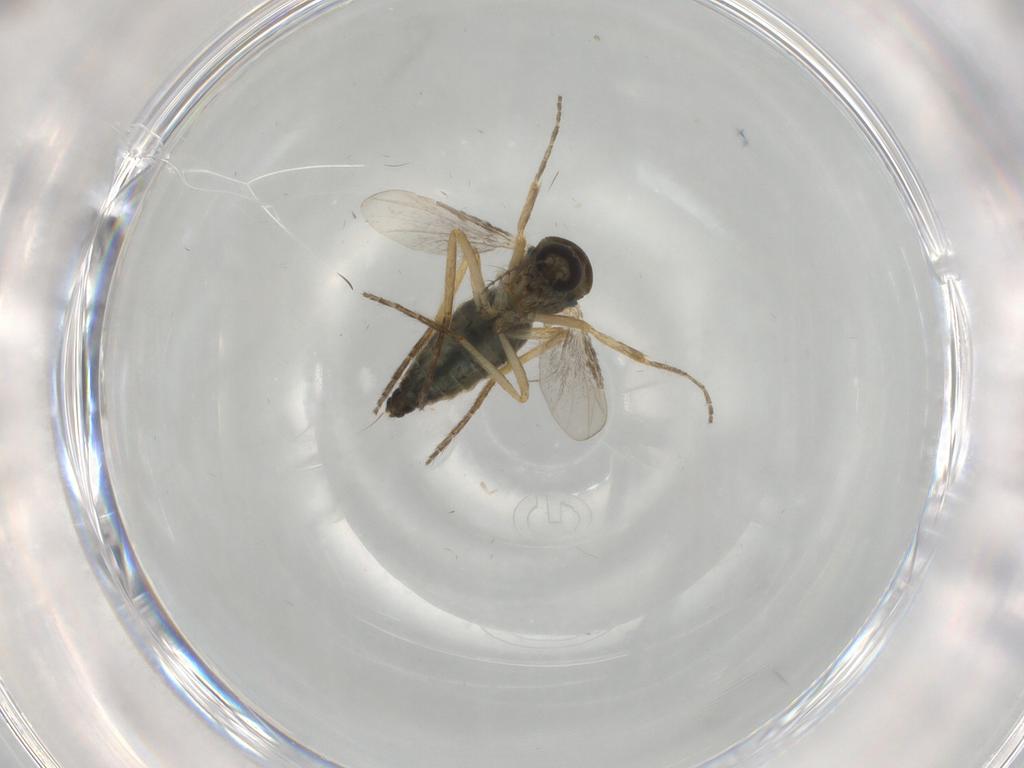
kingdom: Animalia
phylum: Arthropoda
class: Insecta
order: Diptera
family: Ceratopogonidae
